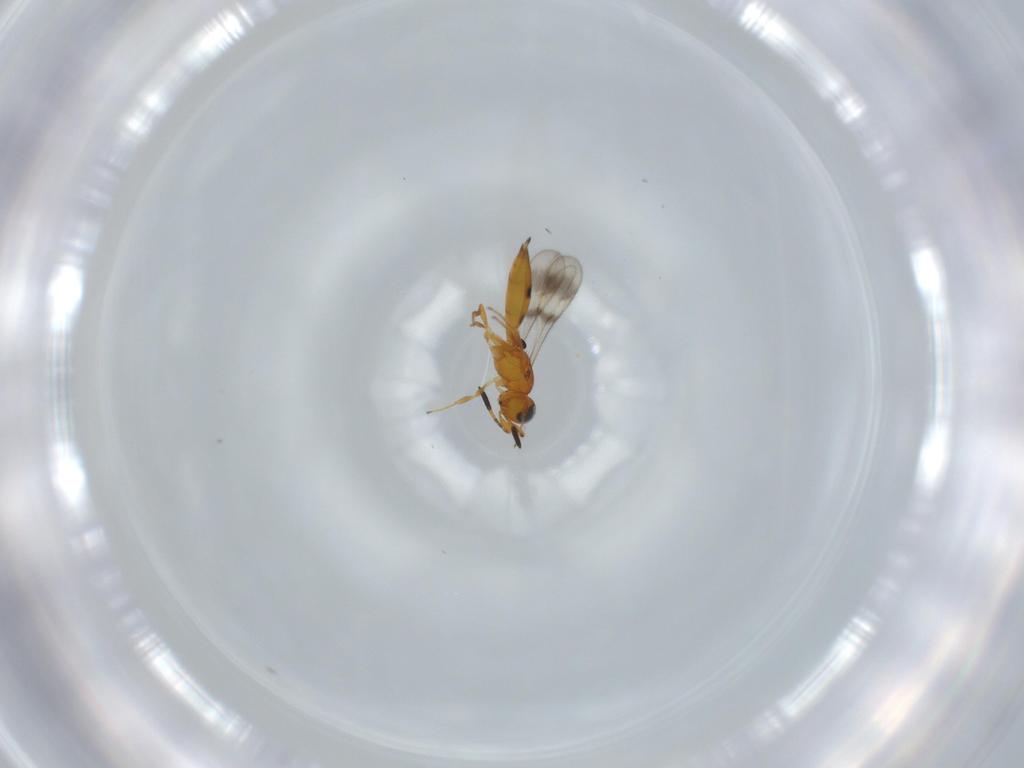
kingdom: Animalia
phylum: Arthropoda
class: Insecta
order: Hymenoptera
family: Scelionidae
